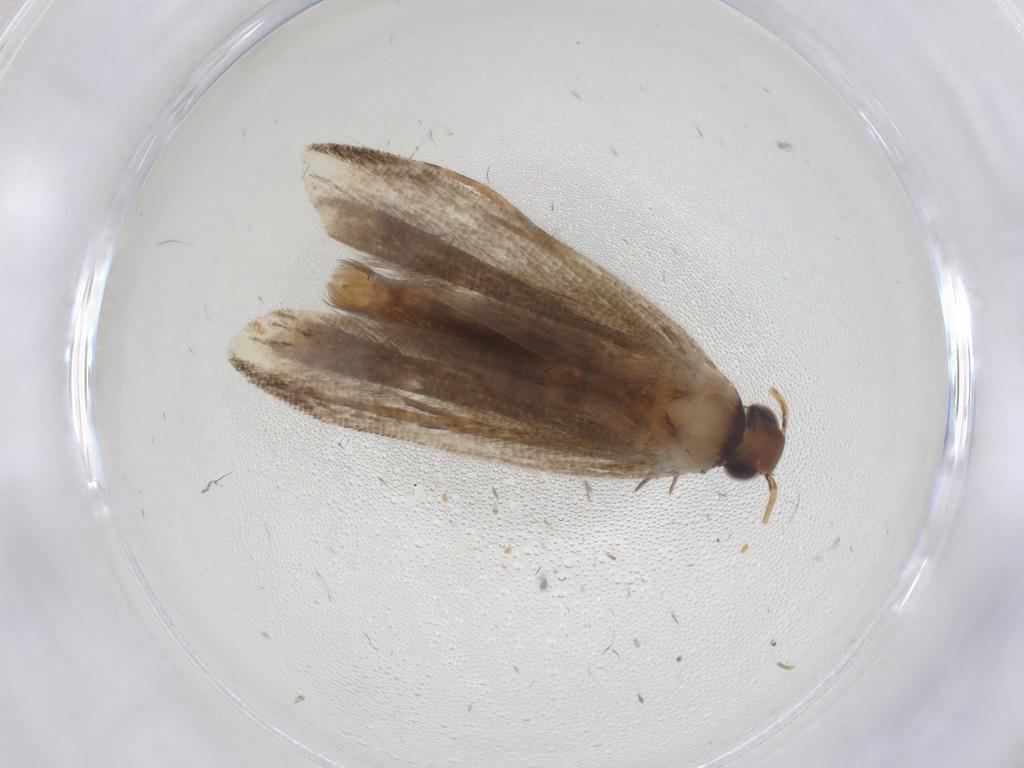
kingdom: Animalia
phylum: Arthropoda
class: Insecta
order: Lepidoptera
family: Gelechiidae
